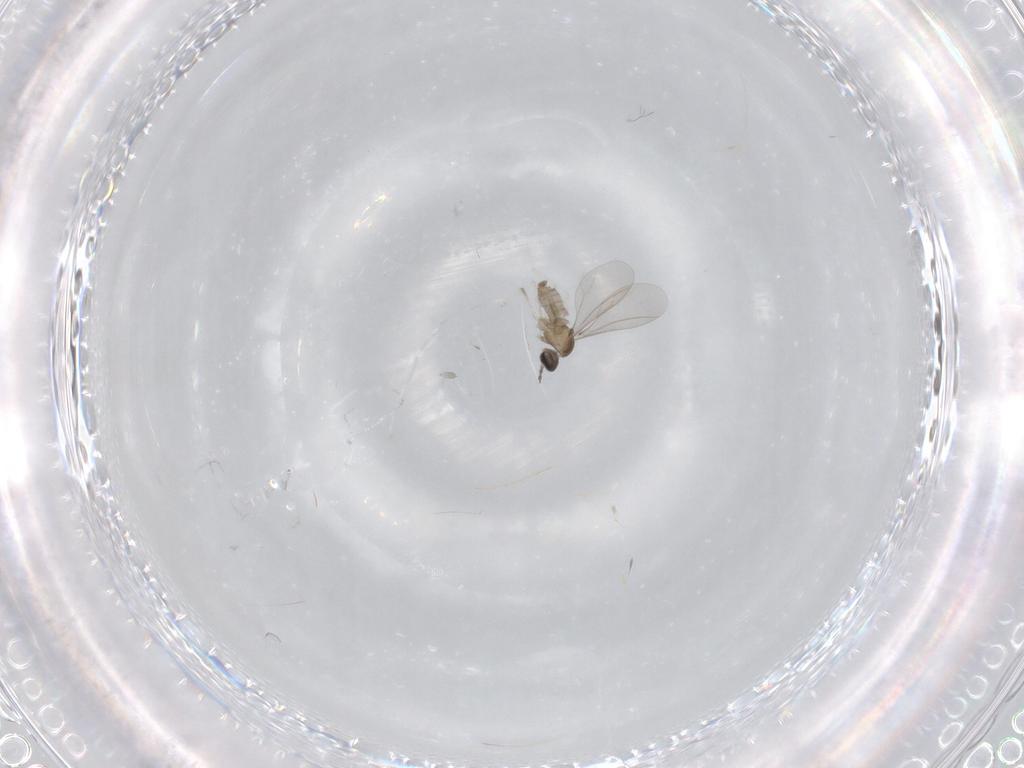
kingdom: Animalia
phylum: Arthropoda
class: Insecta
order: Diptera
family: Cecidomyiidae
